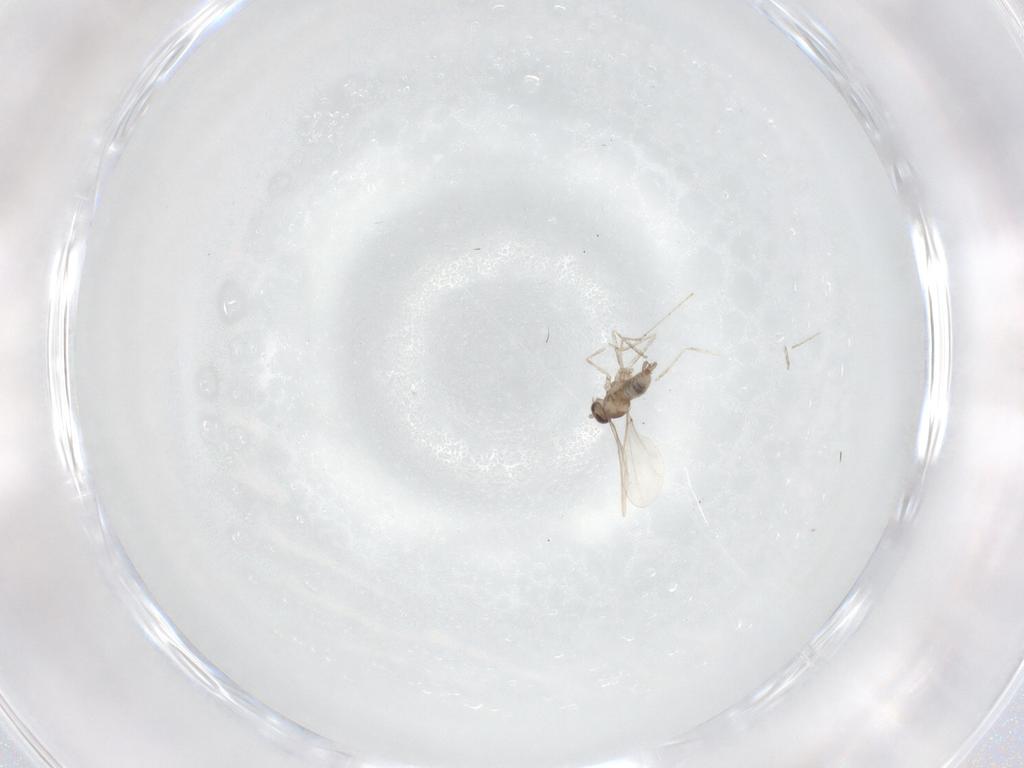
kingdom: Animalia
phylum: Arthropoda
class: Insecta
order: Diptera
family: Cecidomyiidae
